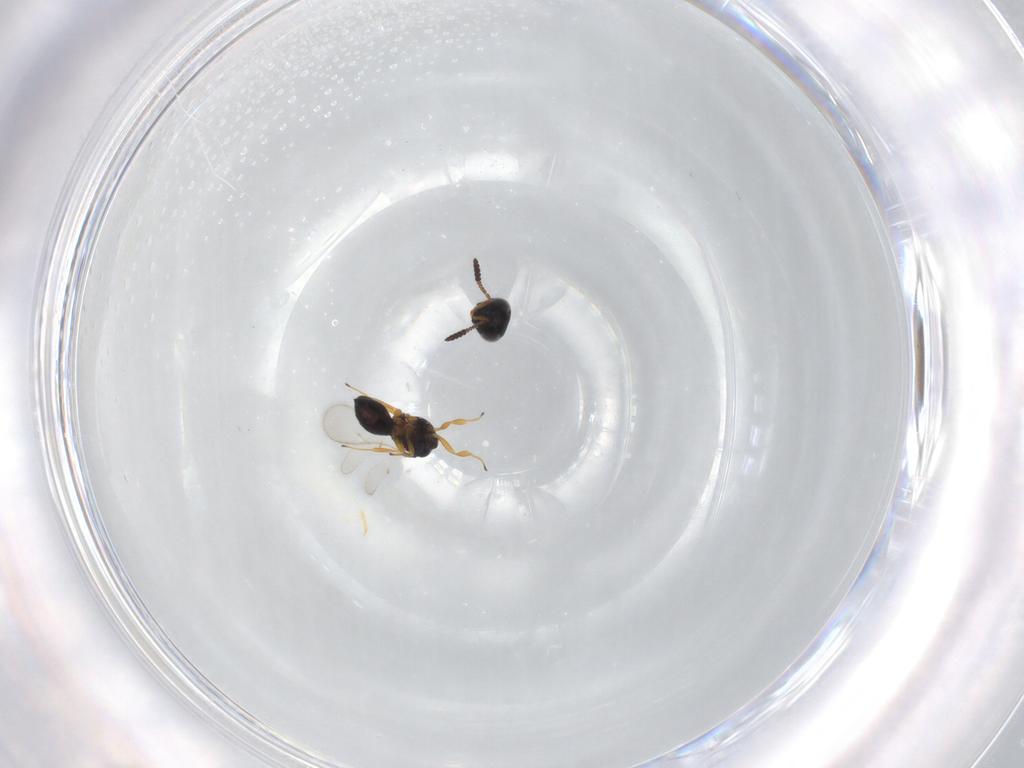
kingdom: Animalia
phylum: Arthropoda
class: Insecta
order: Hymenoptera
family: Scelionidae
